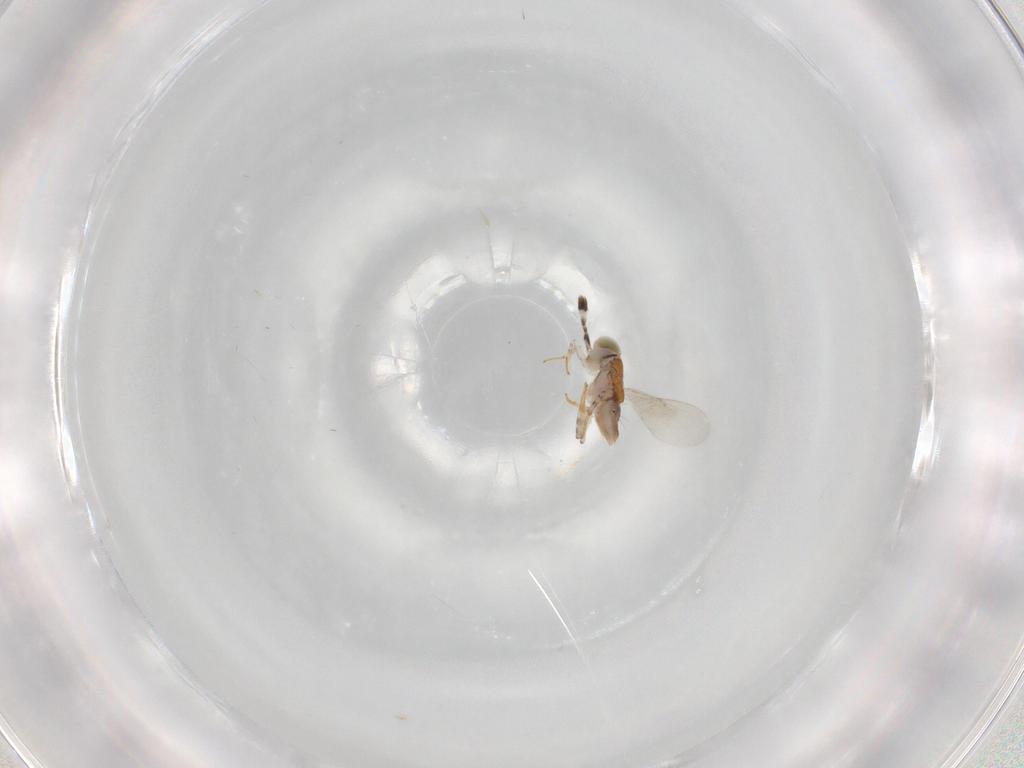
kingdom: Animalia
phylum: Arthropoda
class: Insecta
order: Hymenoptera
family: Encyrtidae
